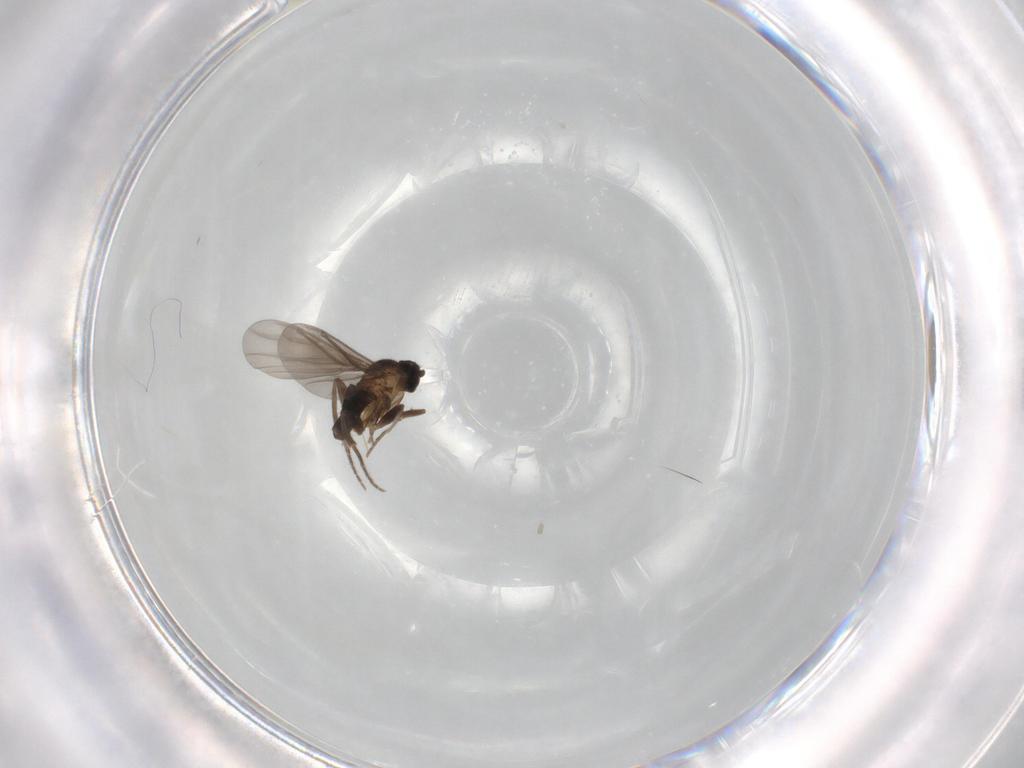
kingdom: Animalia
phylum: Arthropoda
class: Insecta
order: Diptera
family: Phoridae
